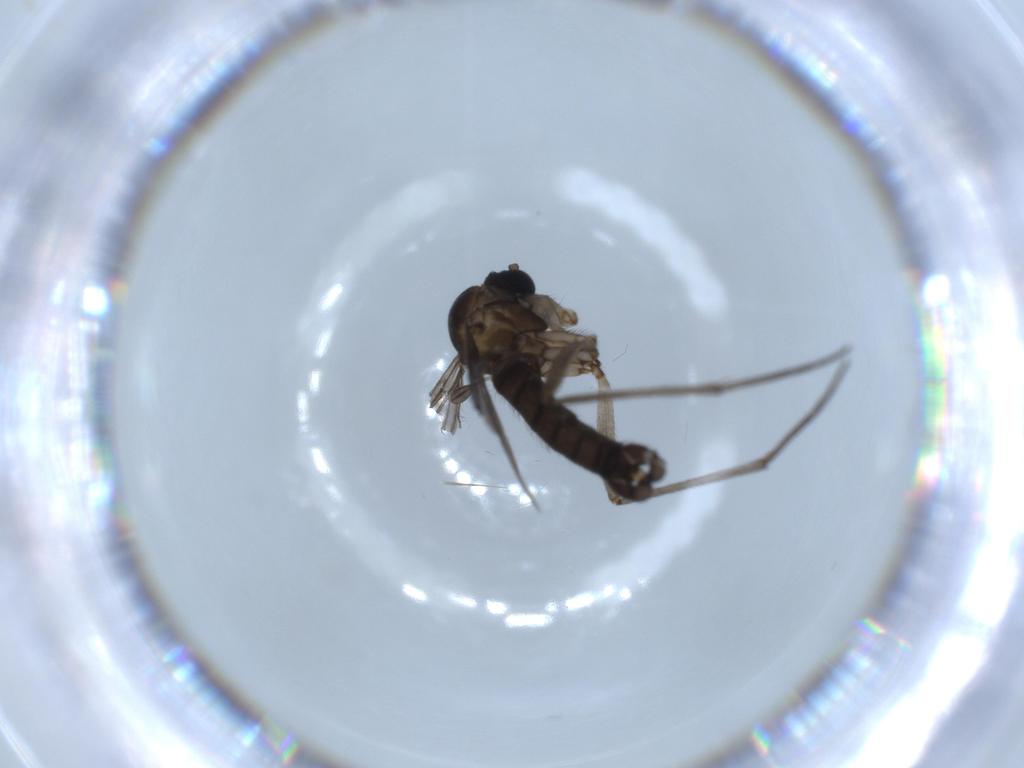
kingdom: Animalia
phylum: Arthropoda
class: Insecta
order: Diptera
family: Sciaridae
